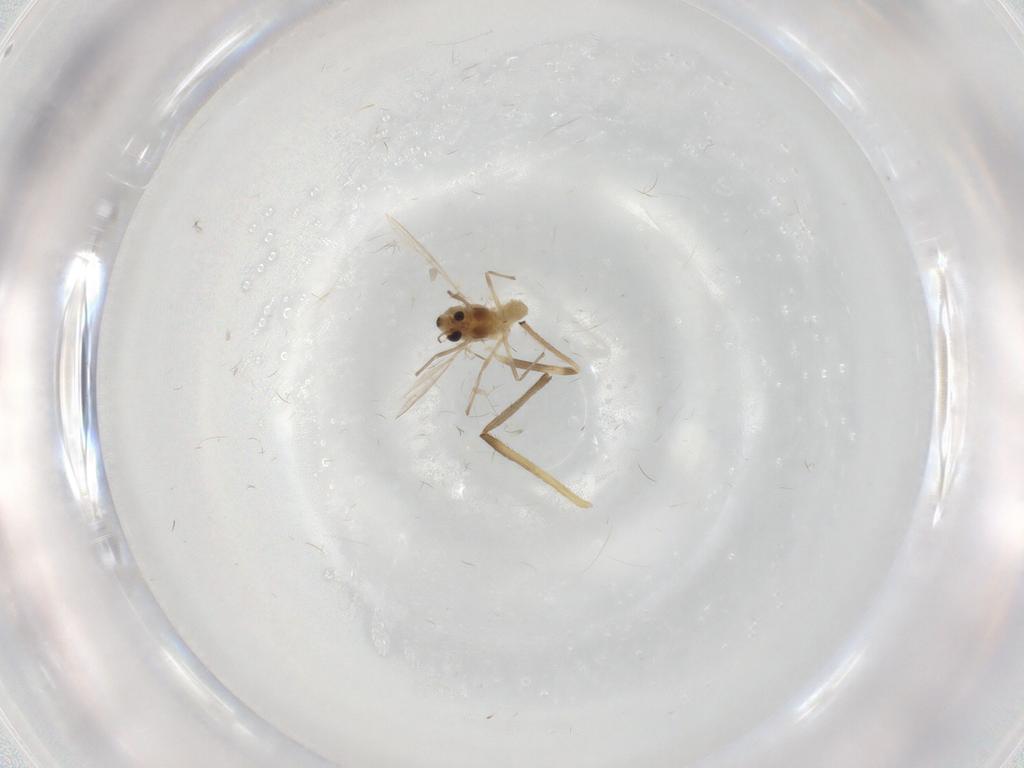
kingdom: Animalia
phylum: Arthropoda
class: Insecta
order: Diptera
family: Chironomidae
